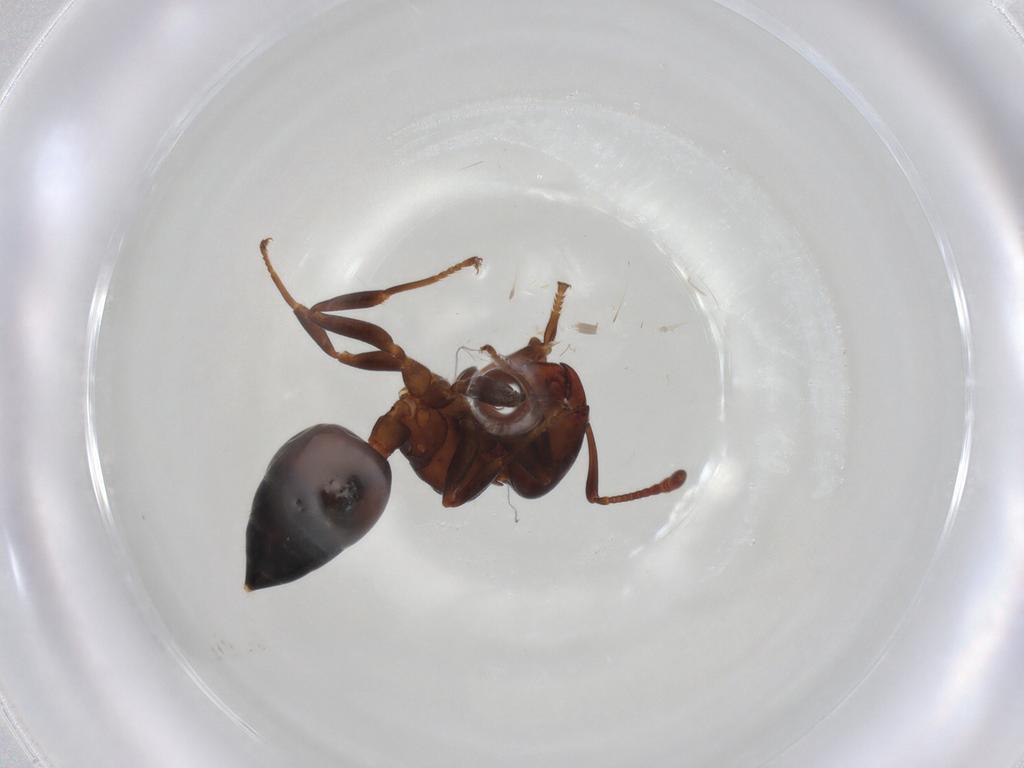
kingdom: Animalia
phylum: Arthropoda
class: Insecta
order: Hymenoptera
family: Formicidae
